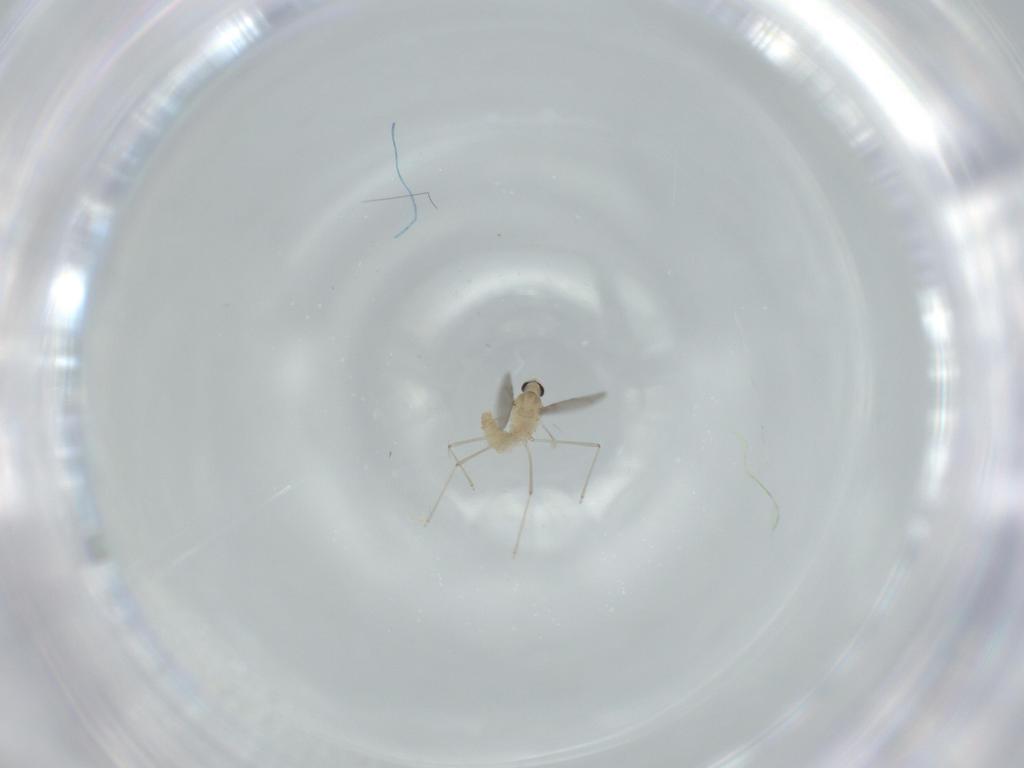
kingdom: Animalia
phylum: Arthropoda
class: Insecta
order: Diptera
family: Cecidomyiidae
